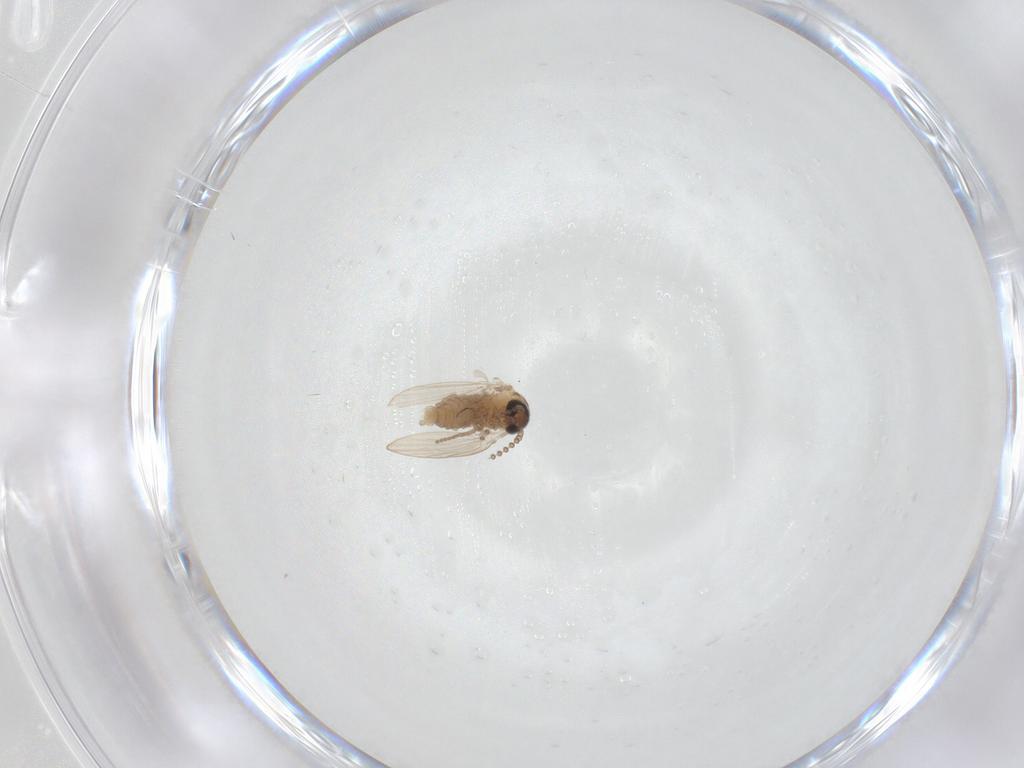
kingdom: Animalia
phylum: Arthropoda
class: Insecta
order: Diptera
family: Psychodidae
